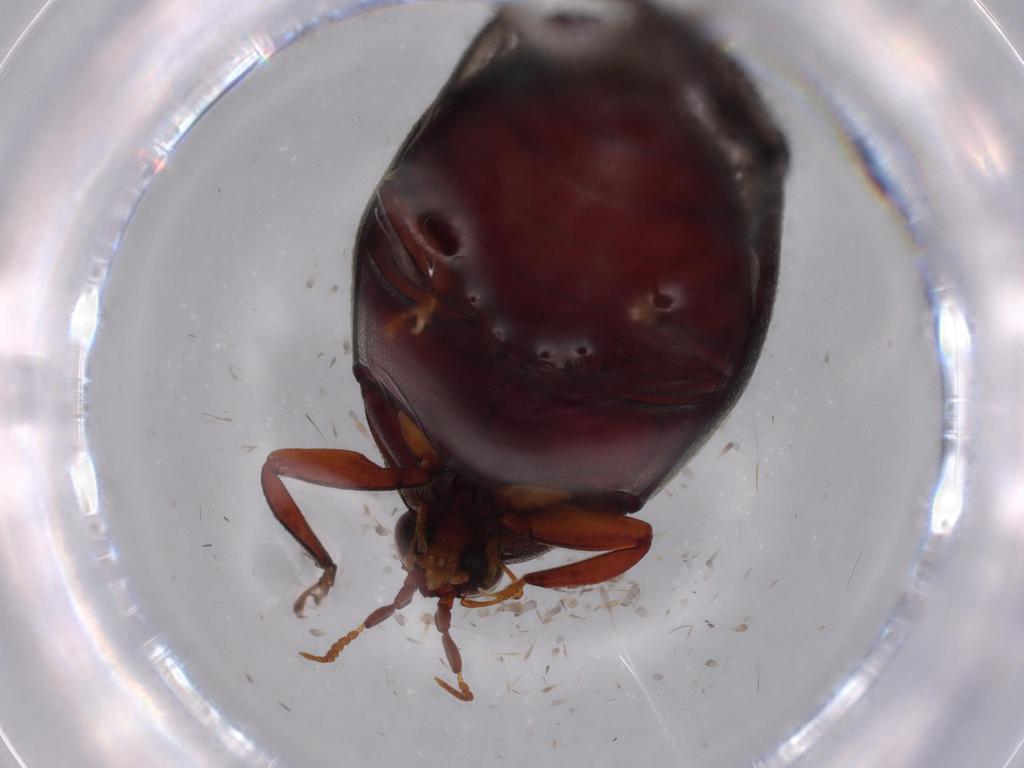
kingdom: Animalia
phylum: Arthropoda
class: Insecta
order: Coleoptera
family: Chelonariidae
